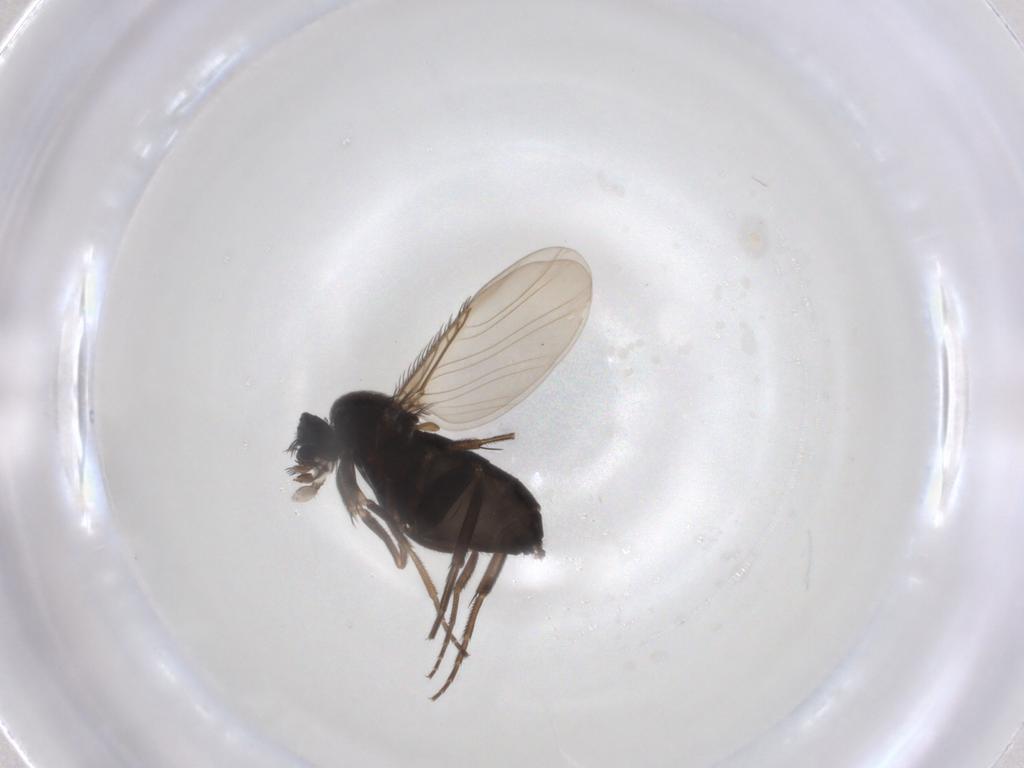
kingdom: Animalia
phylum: Arthropoda
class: Insecta
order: Diptera
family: Phoridae
